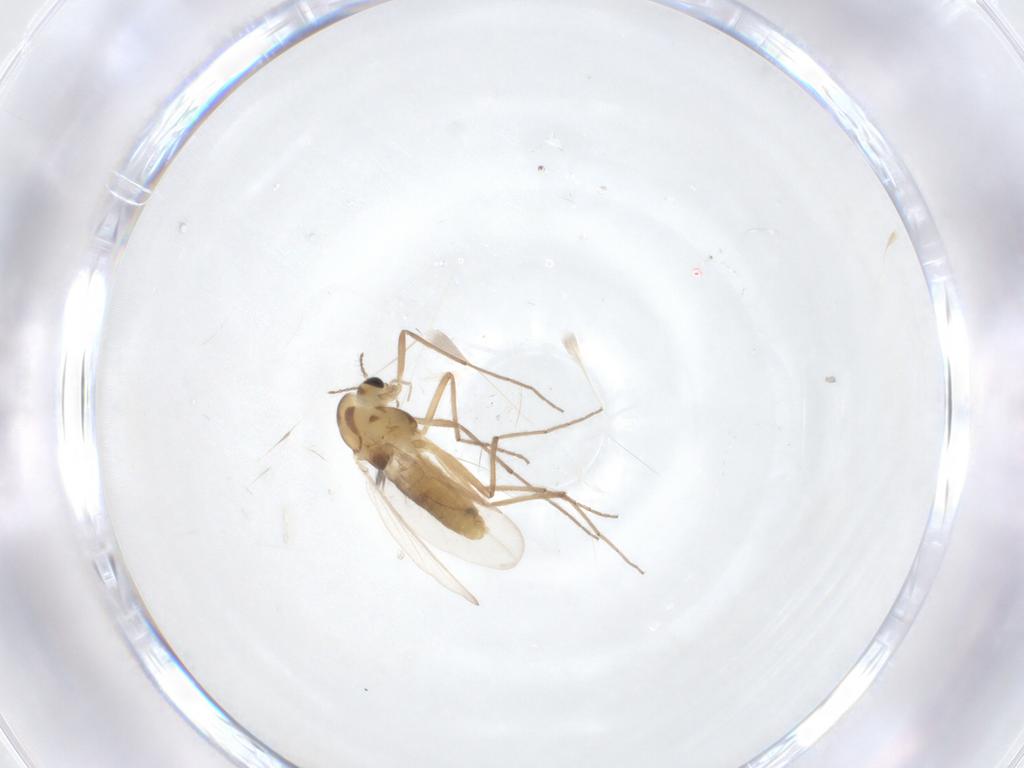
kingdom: Animalia
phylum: Arthropoda
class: Insecta
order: Diptera
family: Chironomidae
